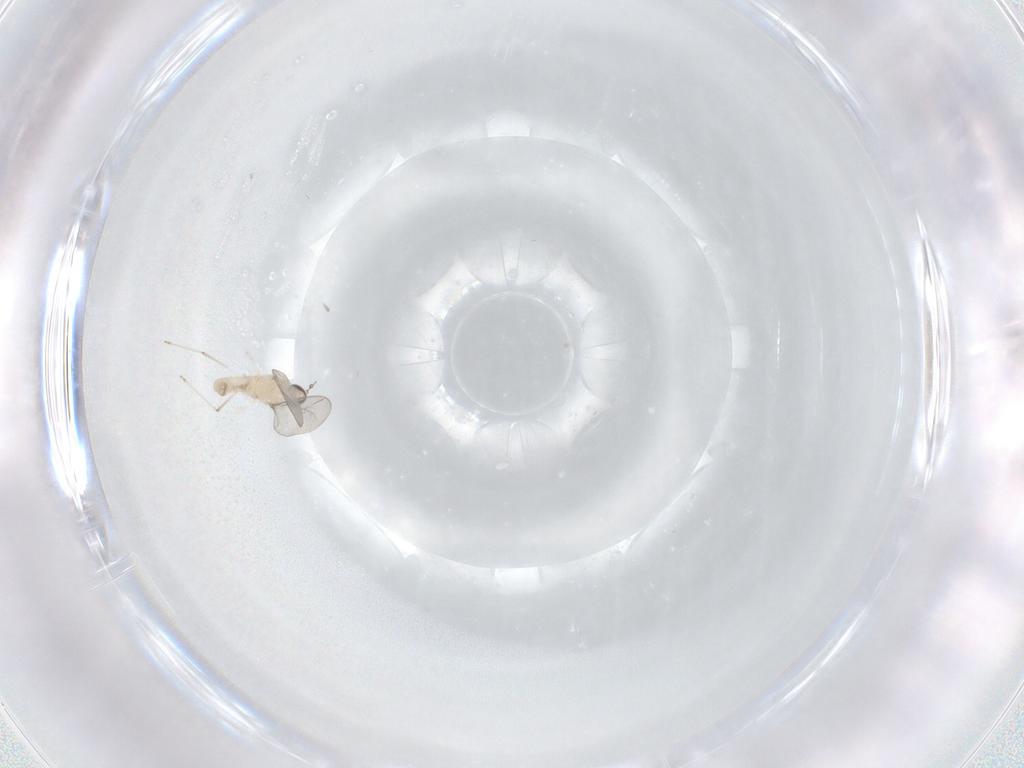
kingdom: Animalia
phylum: Arthropoda
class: Insecta
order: Diptera
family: Cecidomyiidae
